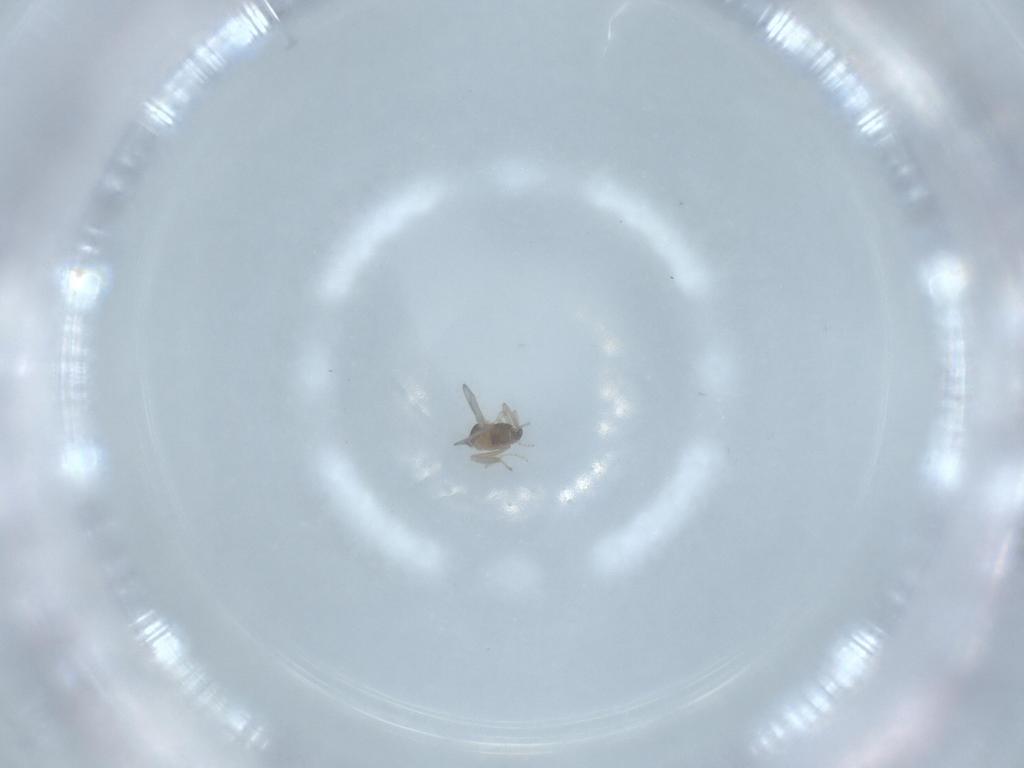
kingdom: Animalia
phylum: Arthropoda
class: Insecta
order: Diptera
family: Cecidomyiidae
